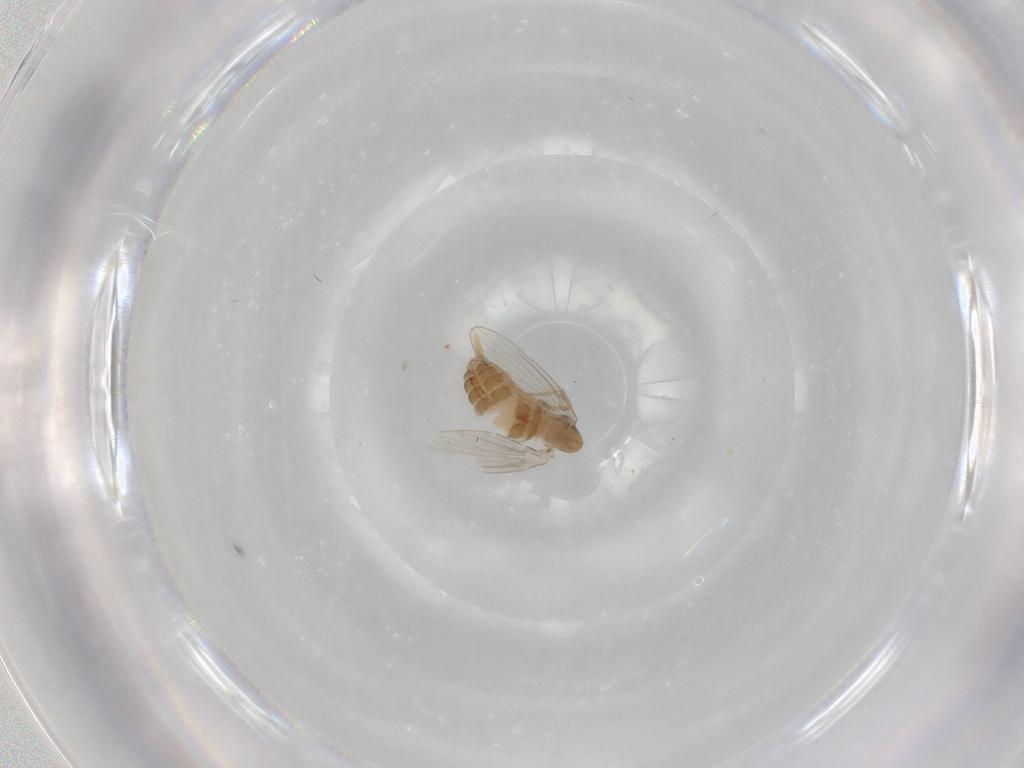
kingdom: Animalia
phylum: Arthropoda
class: Insecta
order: Diptera
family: Psychodidae
